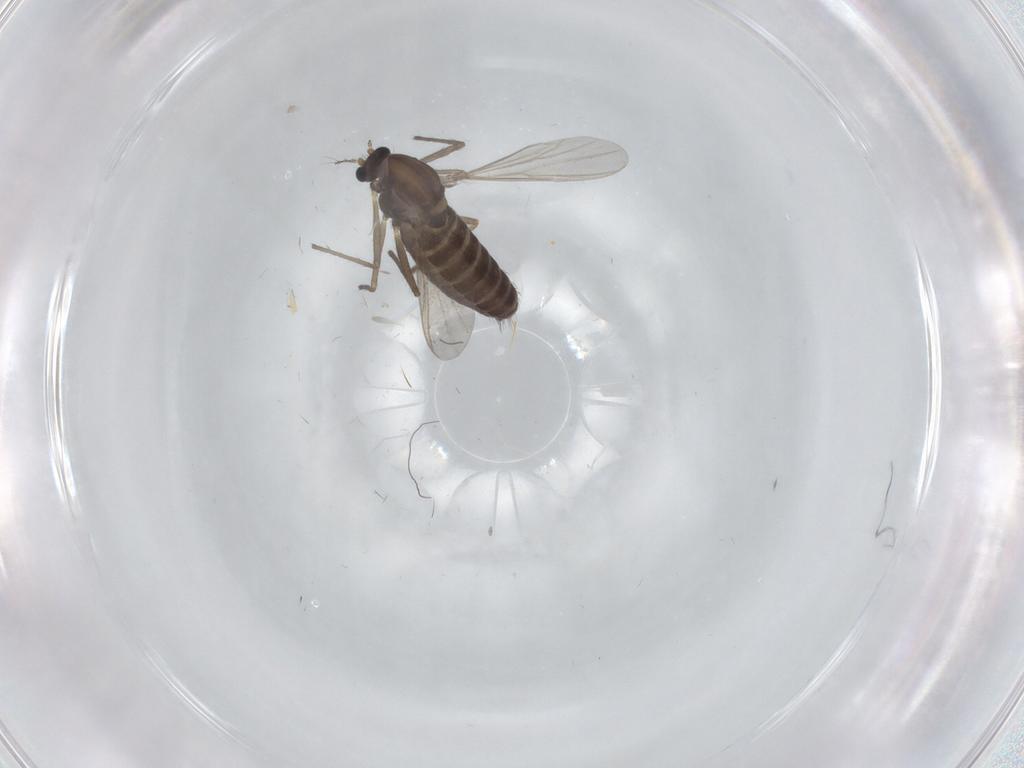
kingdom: Animalia
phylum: Arthropoda
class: Insecta
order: Diptera
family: Chironomidae
